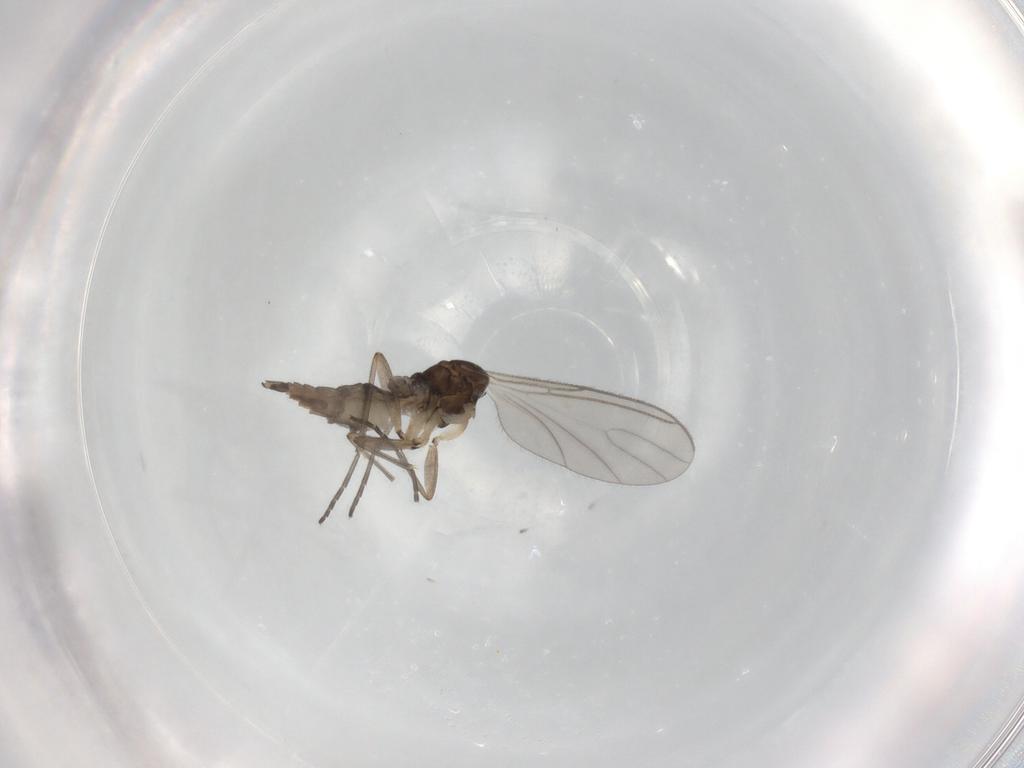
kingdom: Animalia
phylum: Arthropoda
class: Insecta
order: Diptera
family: Sciaridae
